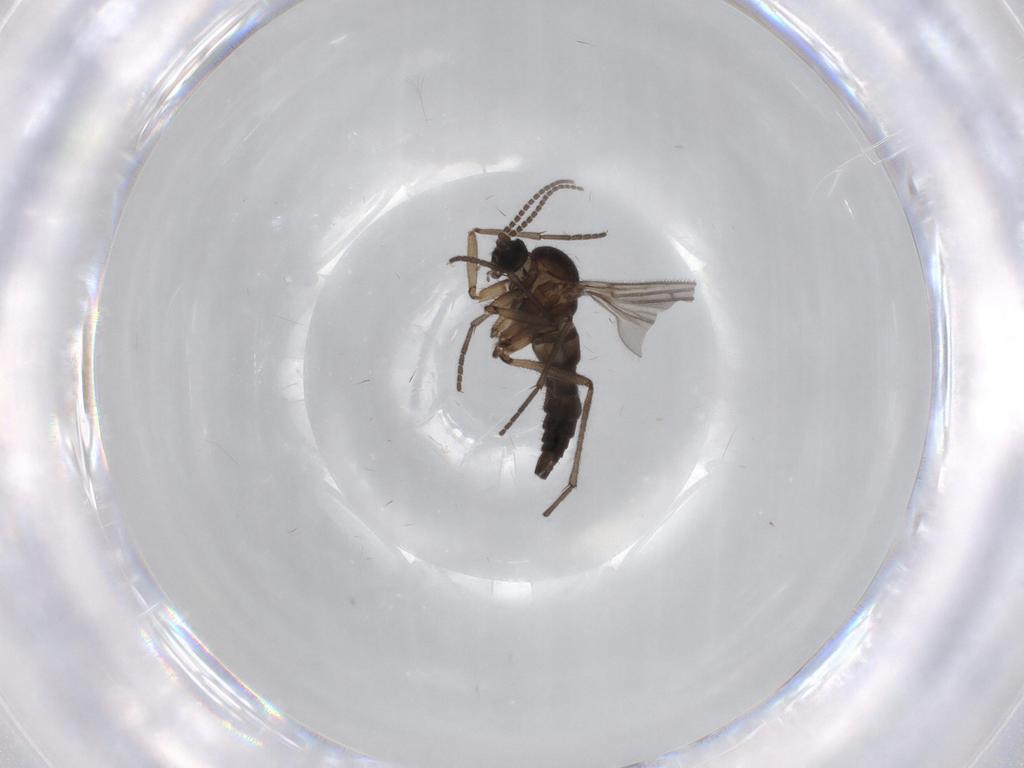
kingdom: Animalia
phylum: Arthropoda
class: Insecta
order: Diptera
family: Sciaridae
